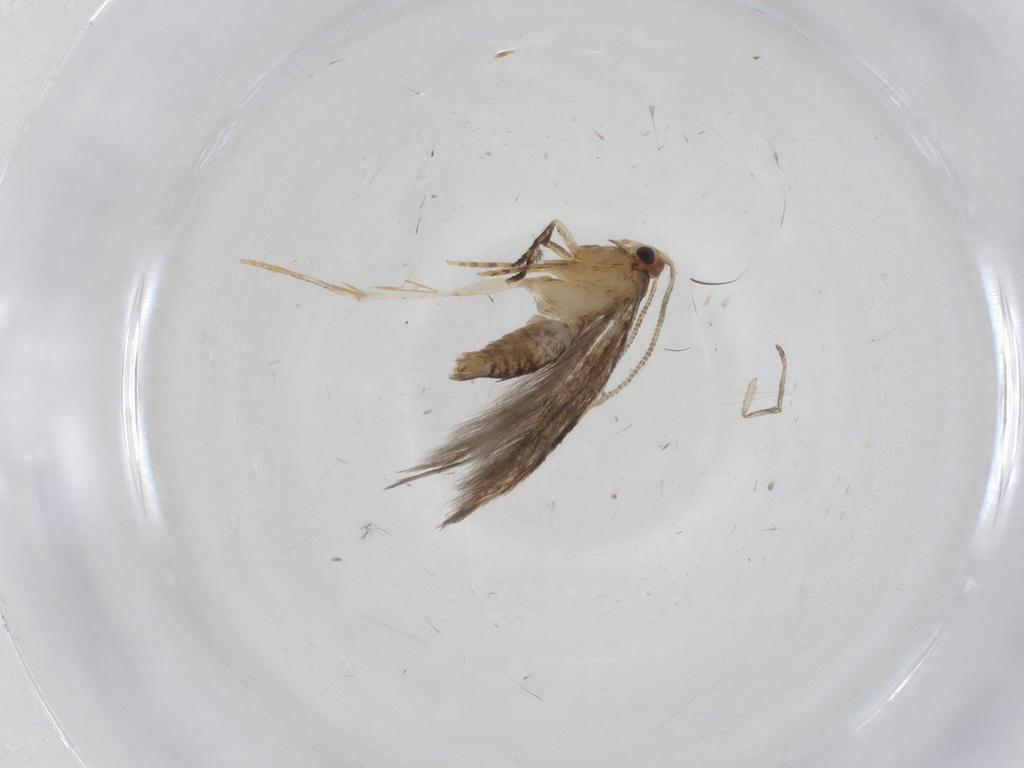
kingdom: Animalia
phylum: Arthropoda
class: Insecta
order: Lepidoptera
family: Tineidae
